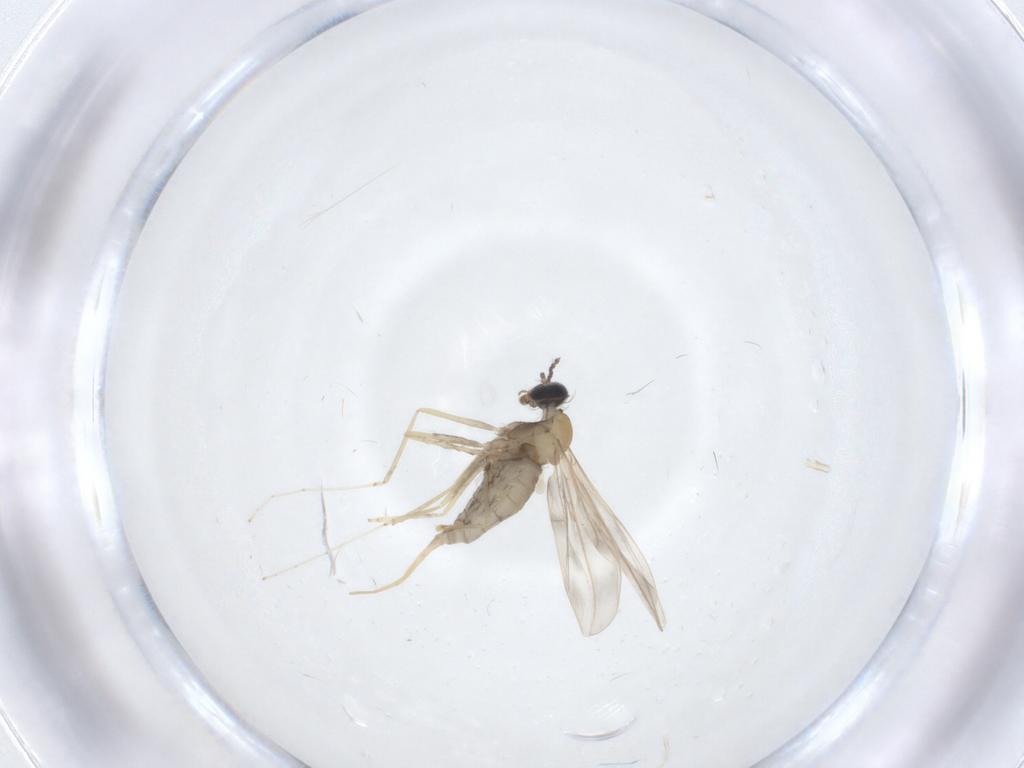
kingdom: Animalia
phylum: Arthropoda
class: Insecta
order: Diptera
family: Cecidomyiidae
